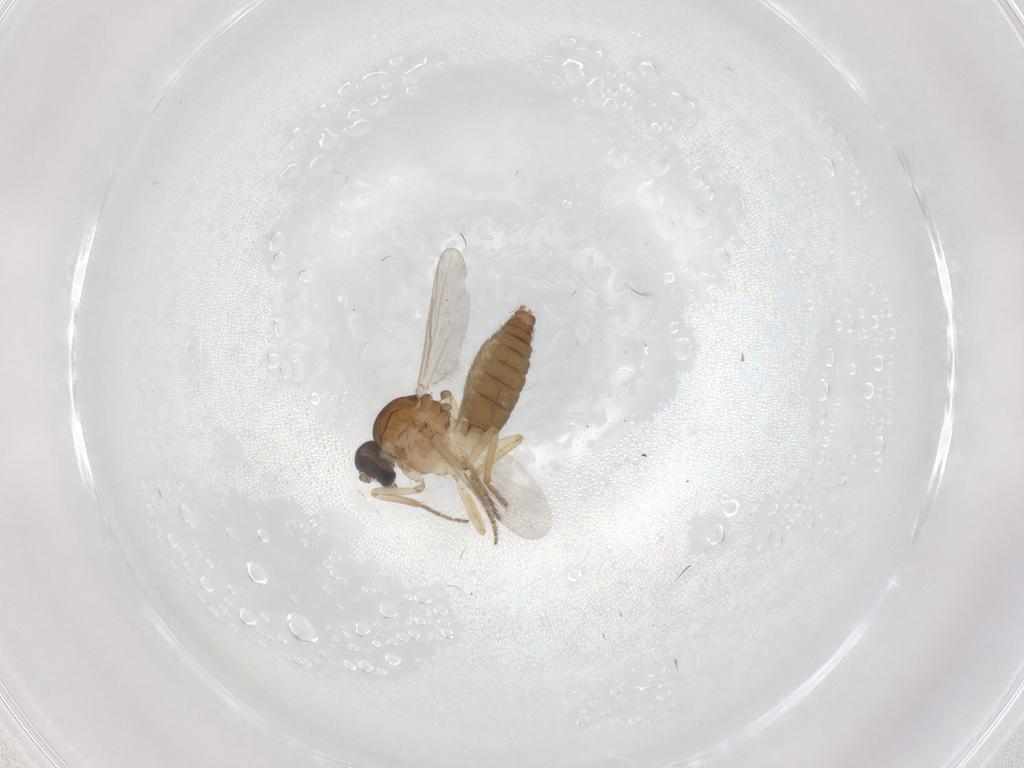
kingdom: Animalia
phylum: Arthropoda
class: Insecta
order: Diptera
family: Ceratopogonidae
